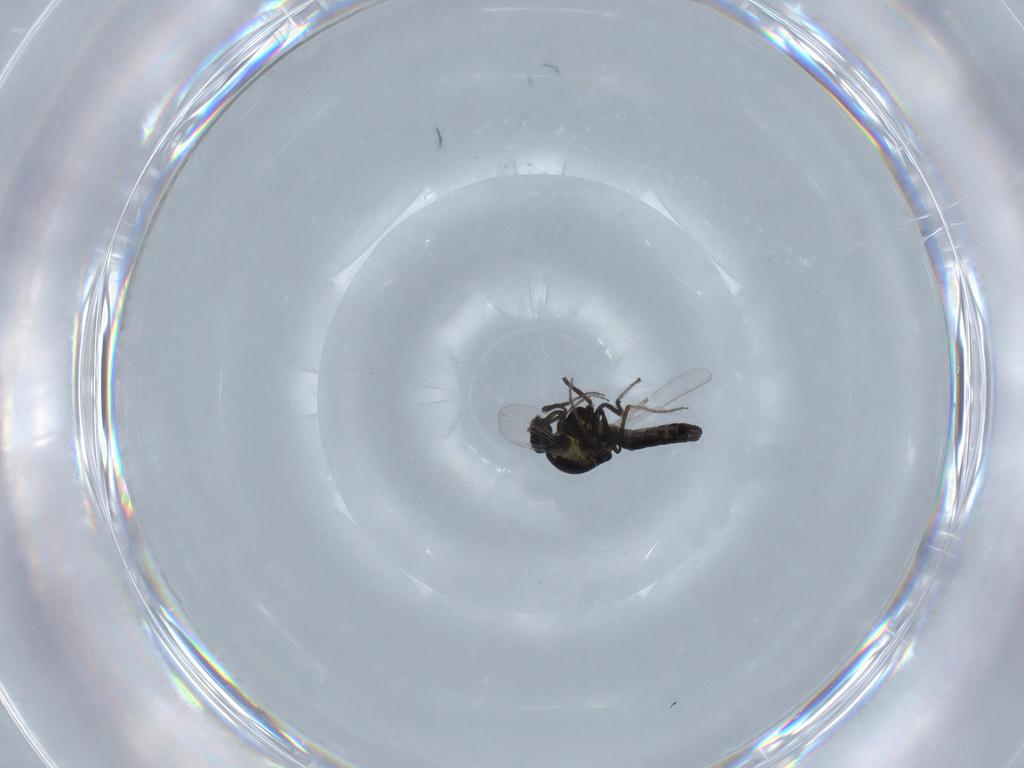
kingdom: Animalia
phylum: Arthropoda
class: Insecta
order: Diptera
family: Ceratopogonidae
